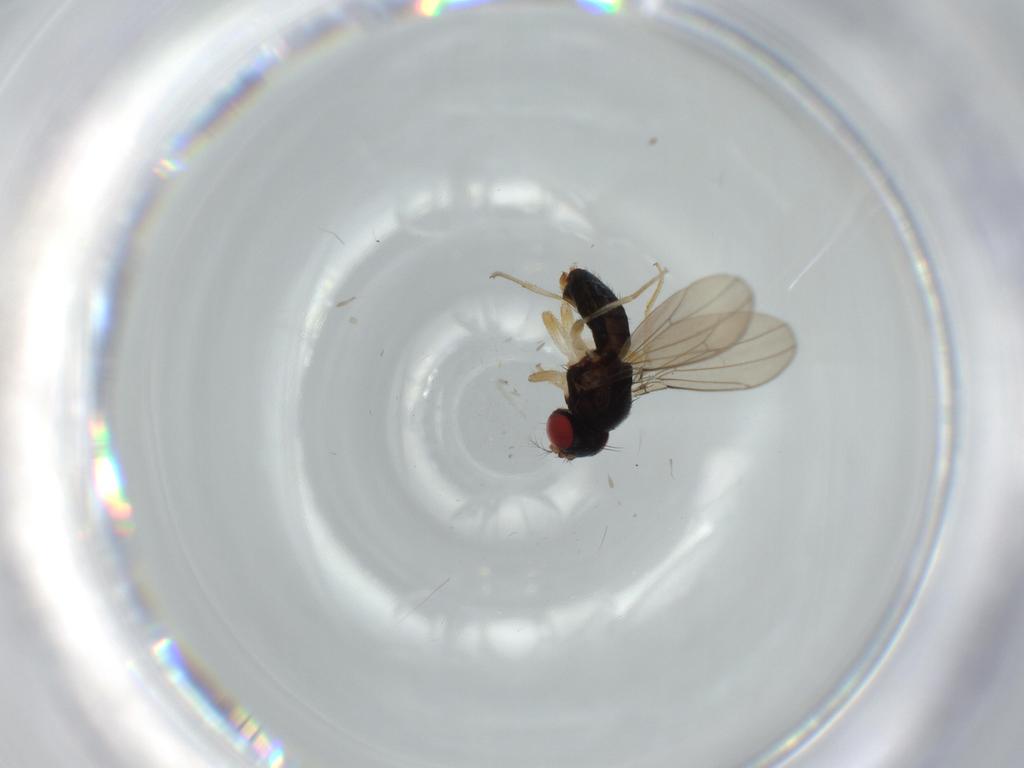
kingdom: Animalia
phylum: Arthropoda
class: Insecta
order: Diptera
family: Drosophilidae
